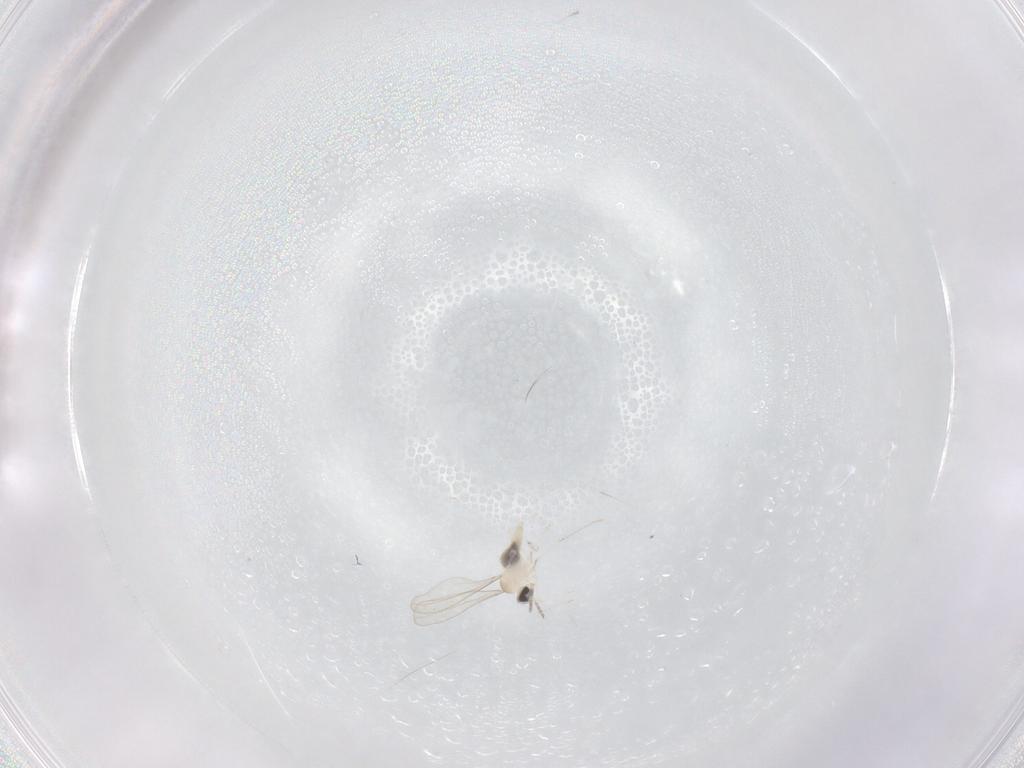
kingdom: Animalia
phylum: Arthropoda
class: Insecta
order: Diptera
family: Cecidomyiidae
